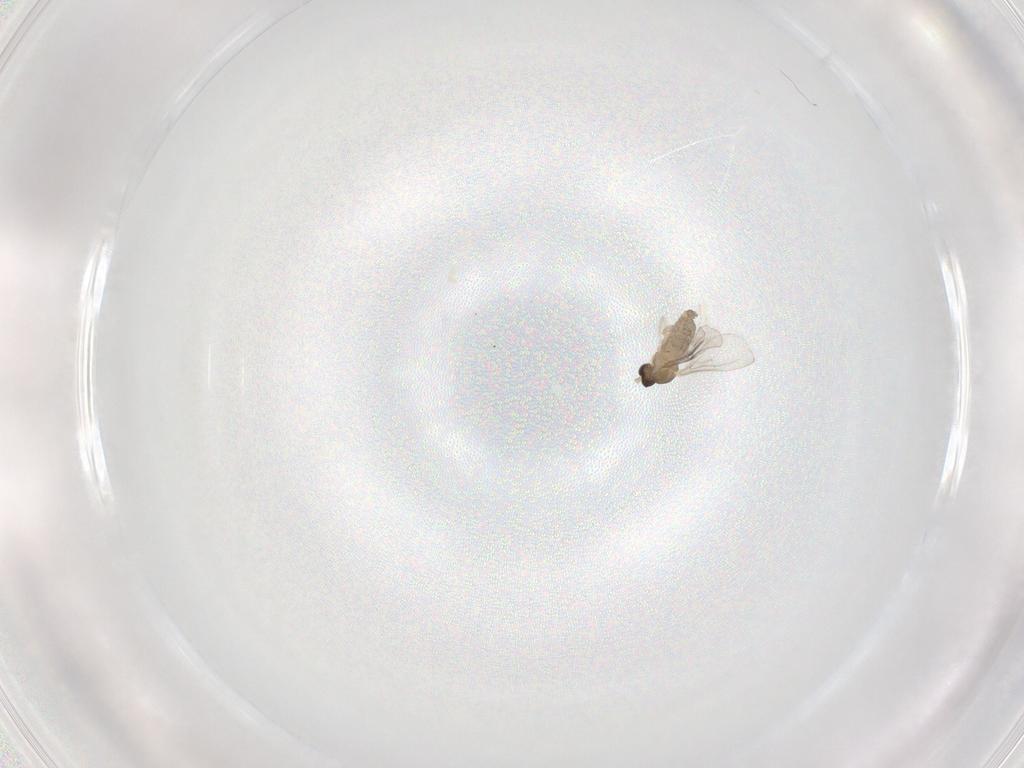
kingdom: Animalia
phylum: Arthropoda
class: Insecta
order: Diptera
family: Cecidomyiidae
